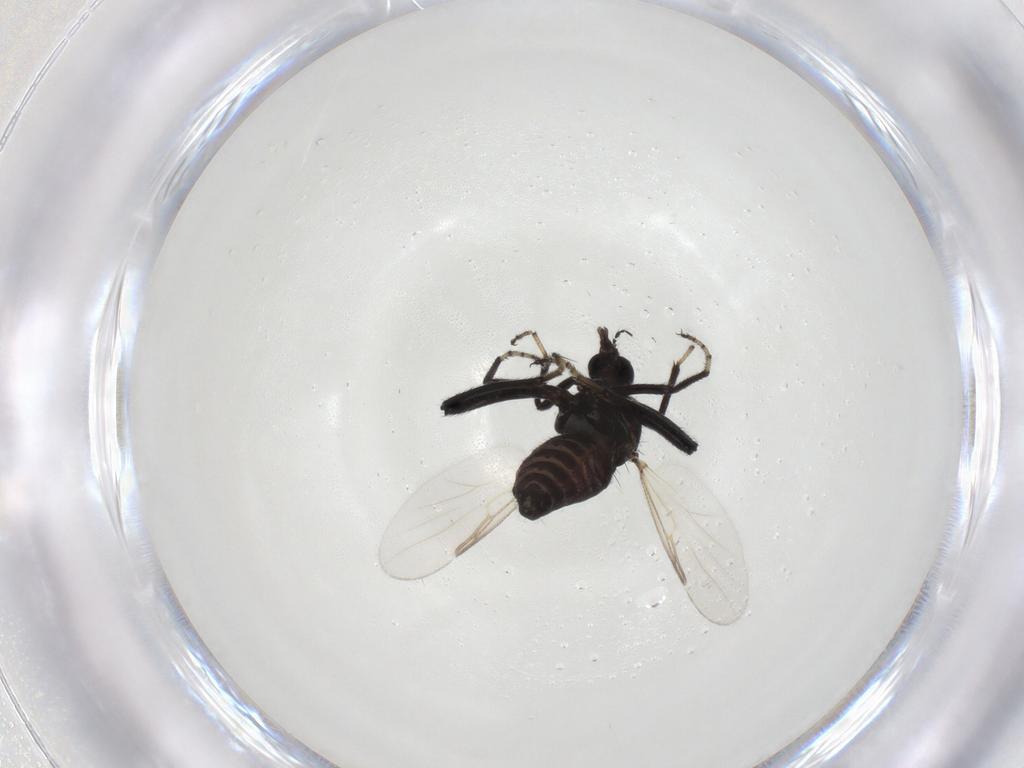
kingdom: Animalia
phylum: Arthropoda
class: Insecta
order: Diptera
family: Ceratopogonidae
